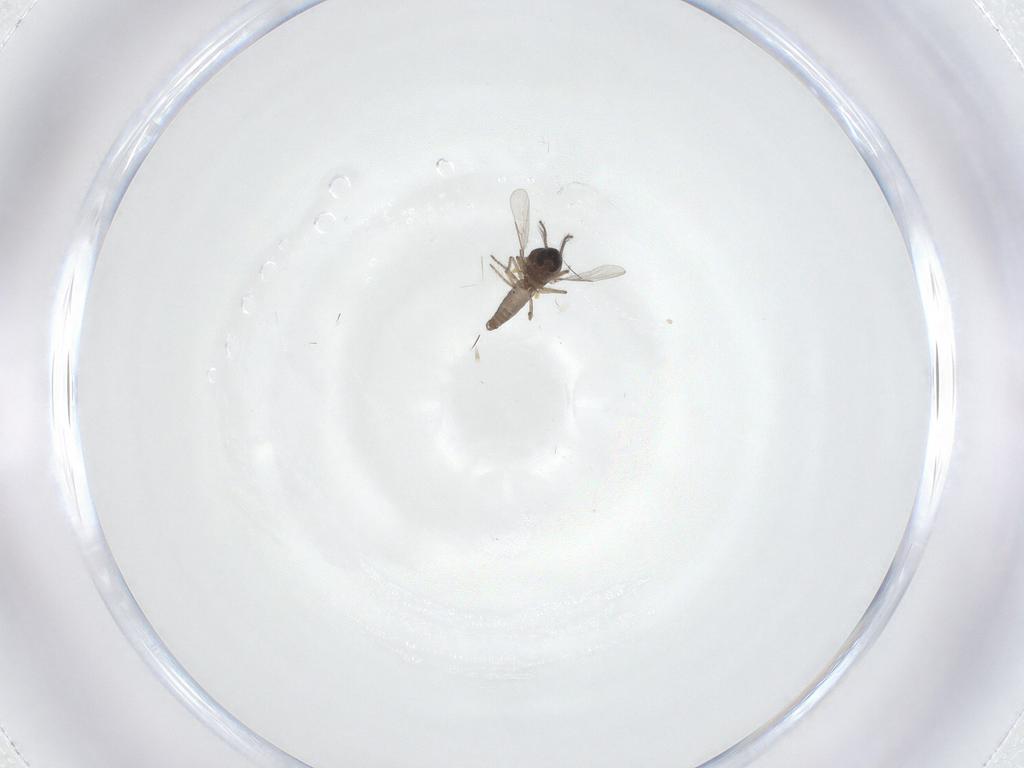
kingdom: Animalia
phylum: Arthropoda
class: Insecta
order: Diptera
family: Ceratopogonidae
